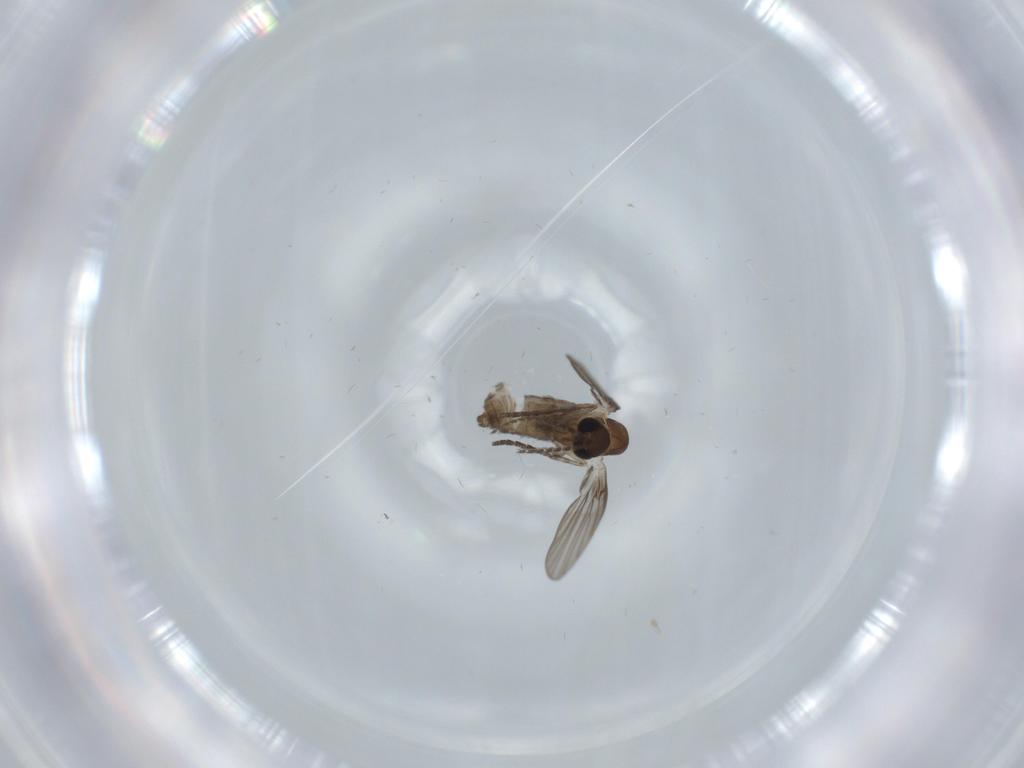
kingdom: Animalia
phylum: Arthropoda
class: Insecta
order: Diptera
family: Psychodidae
